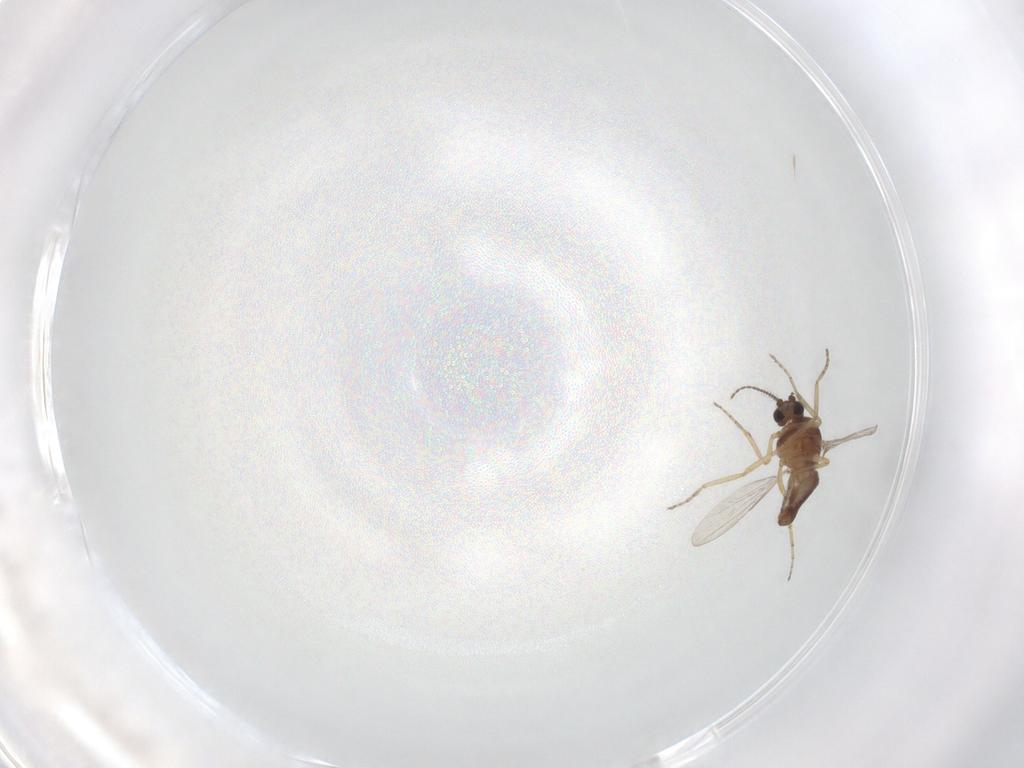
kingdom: Animalia
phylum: Arthropoda
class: Insecta
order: Diptera
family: Ceratopogonidae
